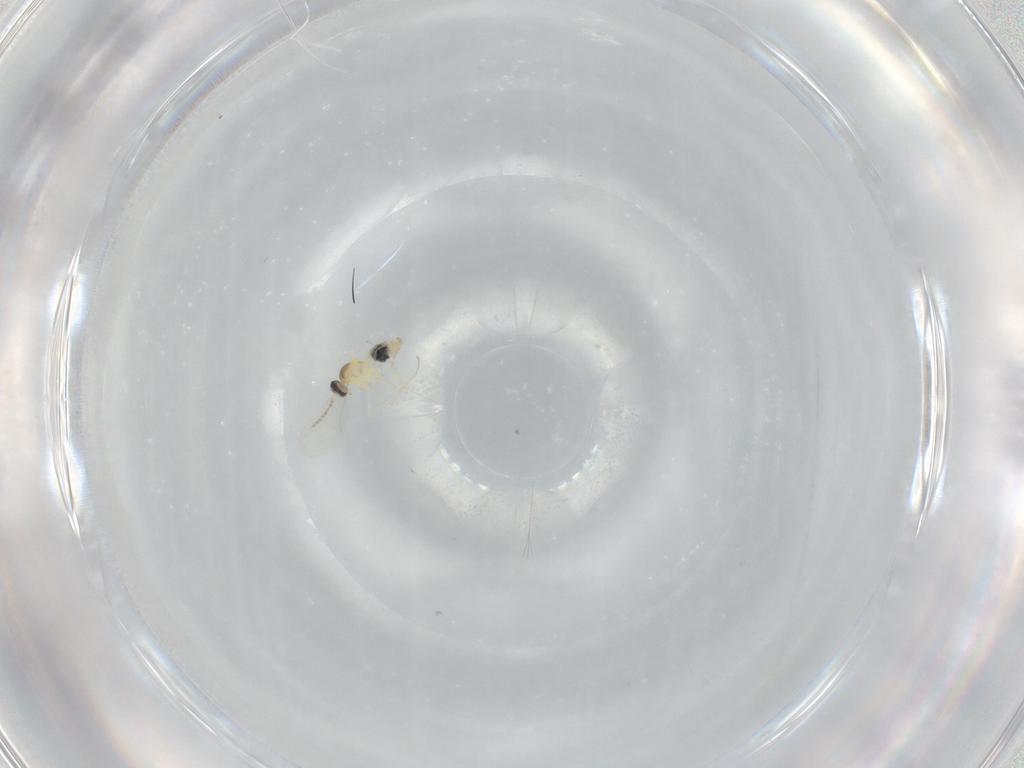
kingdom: Animalia
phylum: Arthropoda
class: Insecta
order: Diptera
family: Cecidomyiidae
